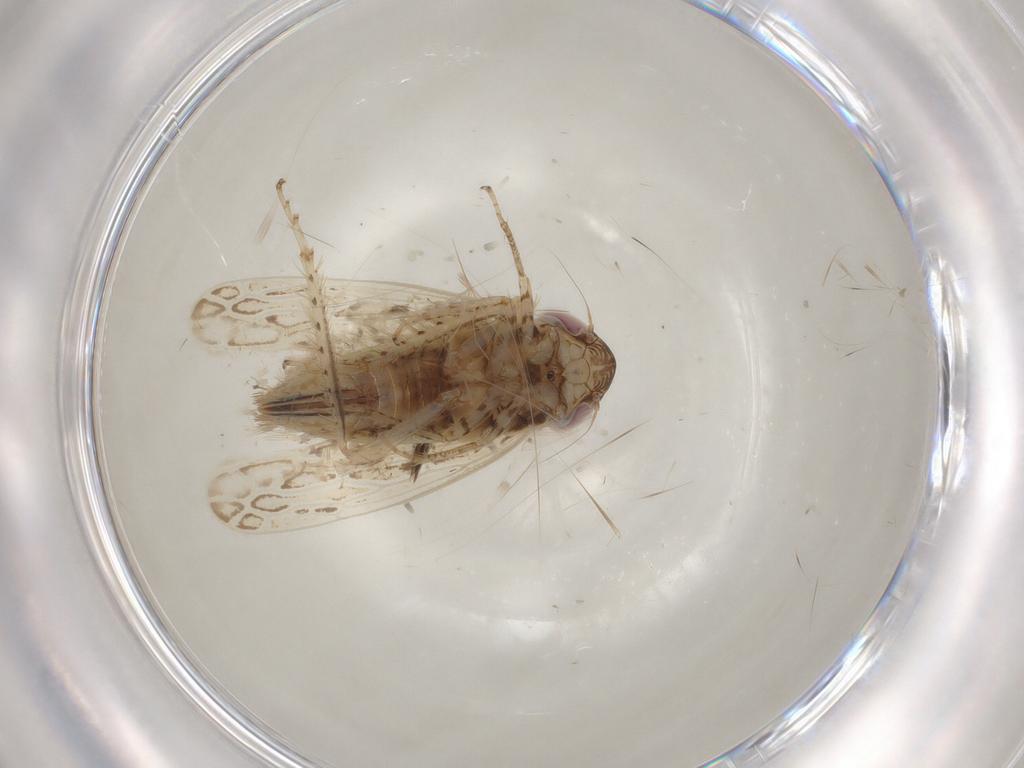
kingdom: Animalia
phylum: Arthropoda
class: Insecta
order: Hemiptera
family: Cicadellidae
